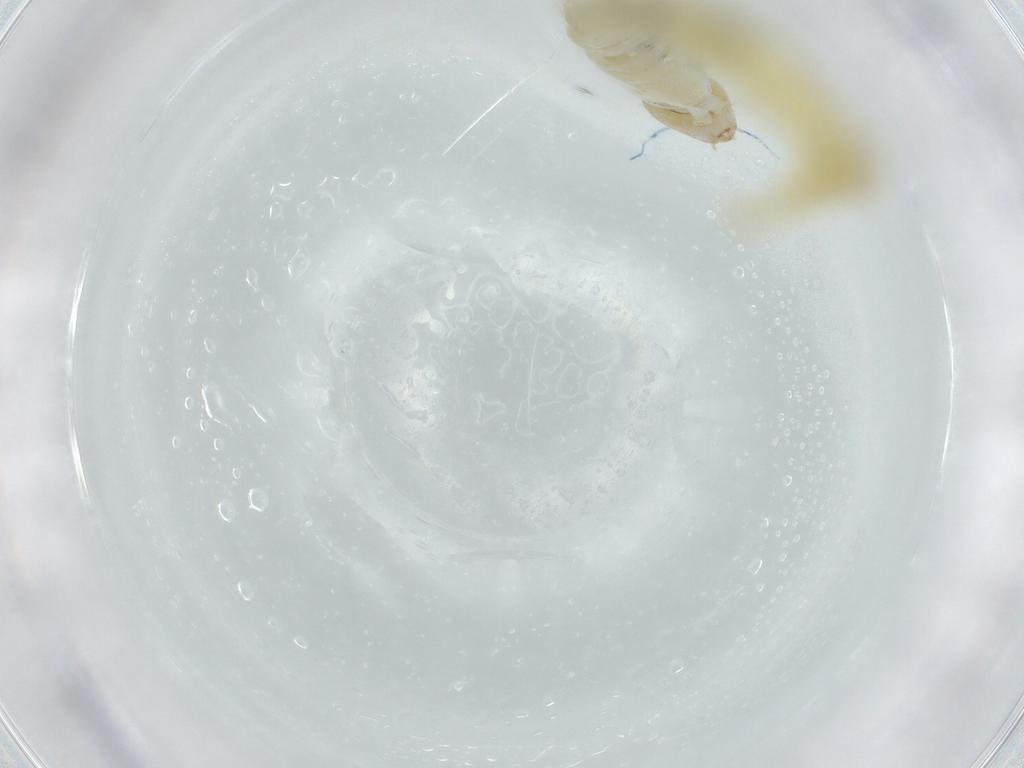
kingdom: Animalia
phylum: Arthropoda
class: Insecta
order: Diptera
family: Chironomidae
